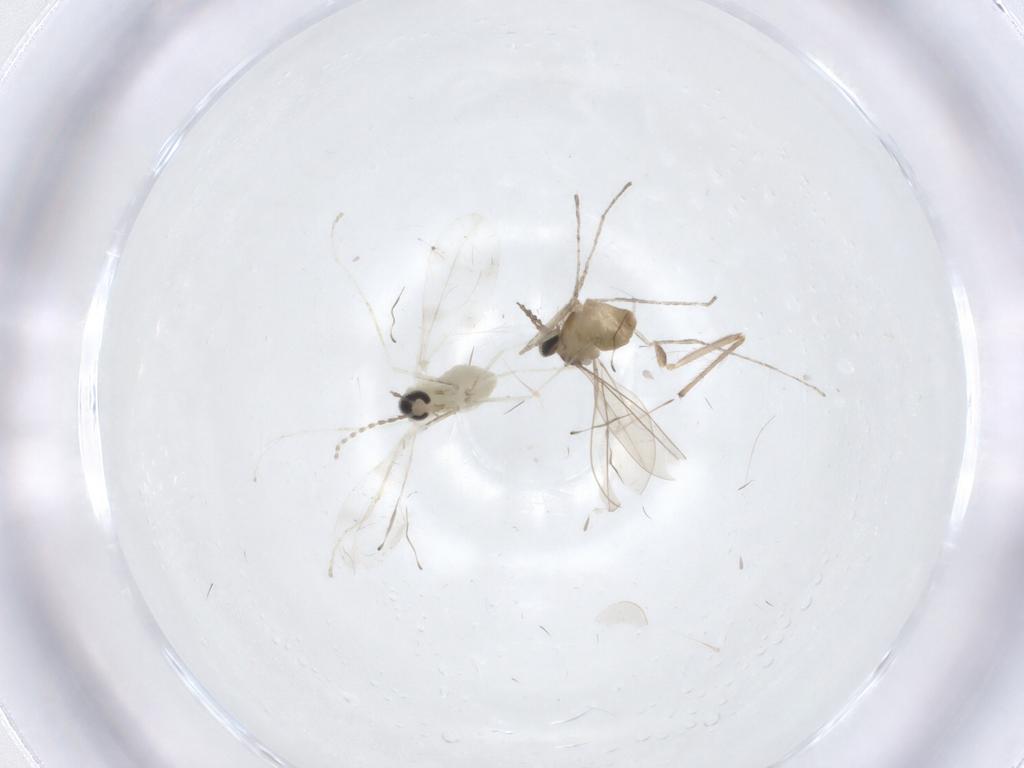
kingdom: Animalia
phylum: Arthropoda
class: Insecta
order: Diptera
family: Cecidomyiidae
